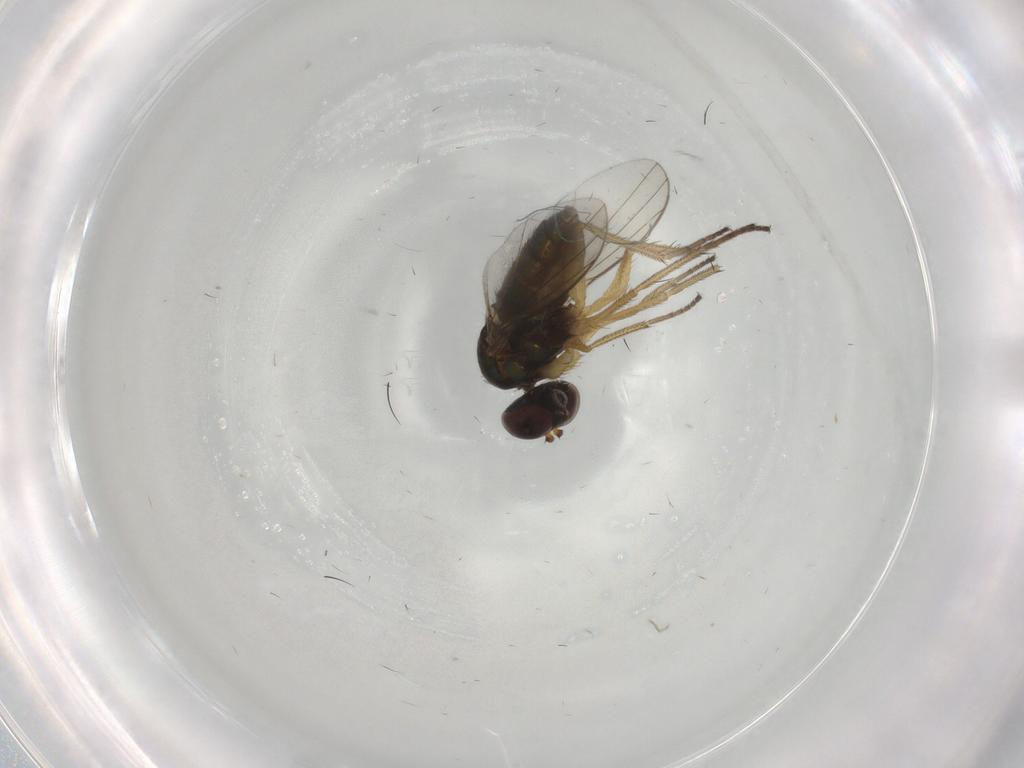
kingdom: Animalia
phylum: Arthropoda
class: Insecta
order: Diptera
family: Dolichopodidae
